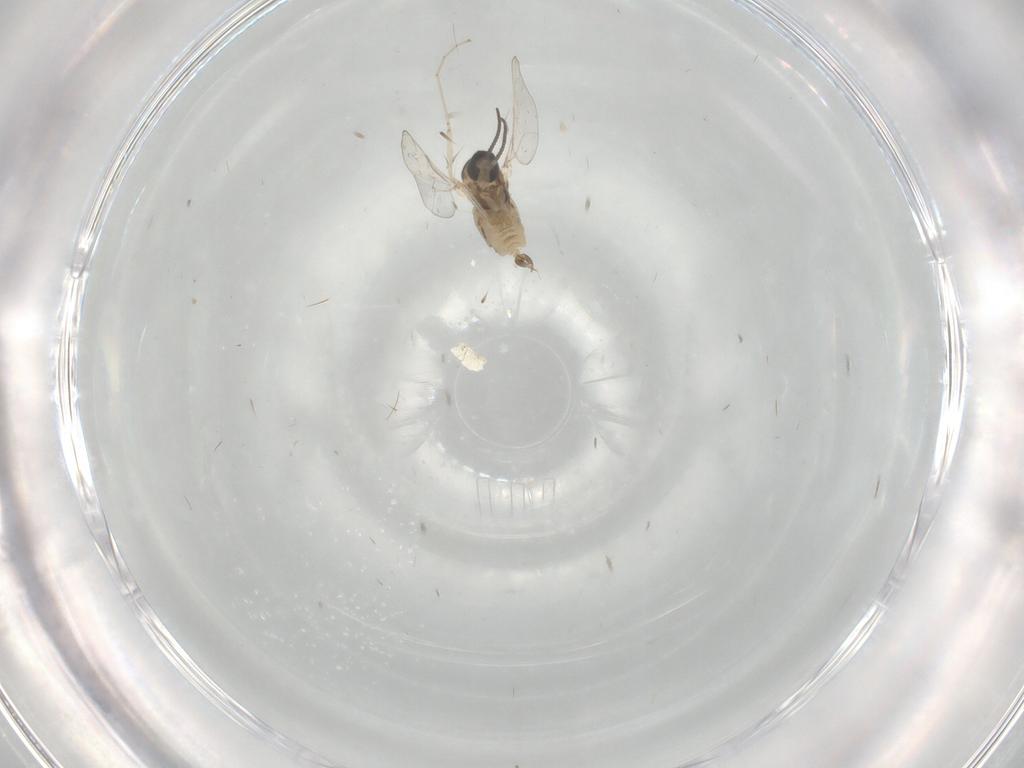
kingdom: Animalia
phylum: Arthropoda
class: Insecta
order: Diptera
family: Cecidomyiidae
